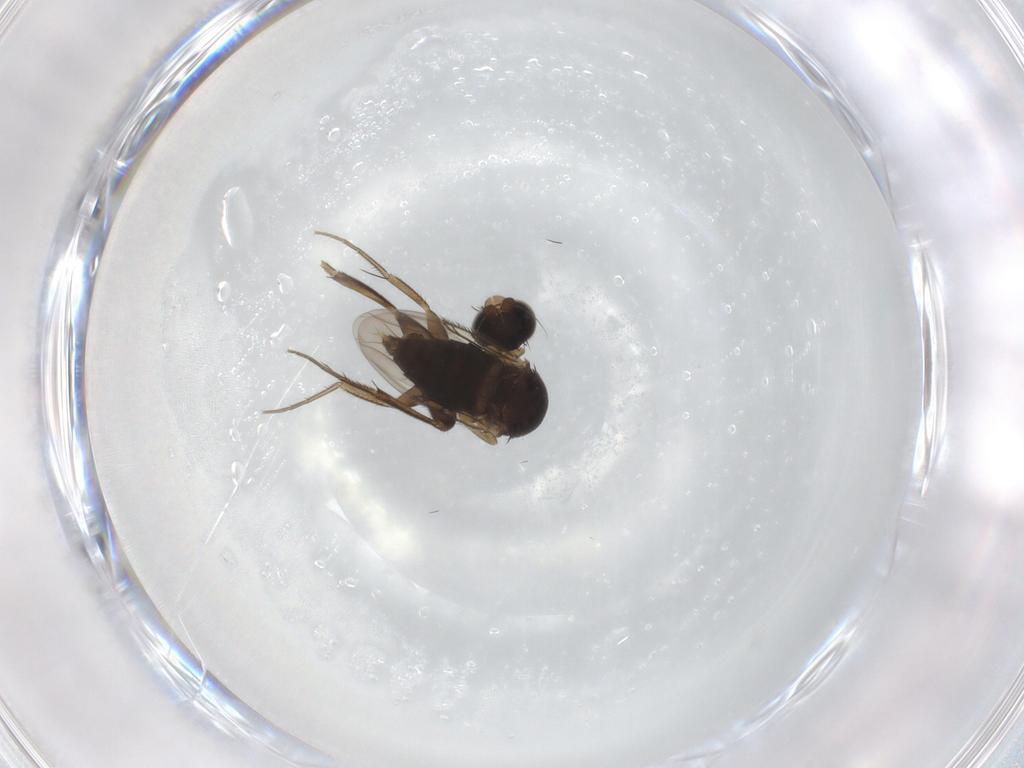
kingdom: Animalia
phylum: Arthropoda
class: Insecta
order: Diptera
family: Phoridae
